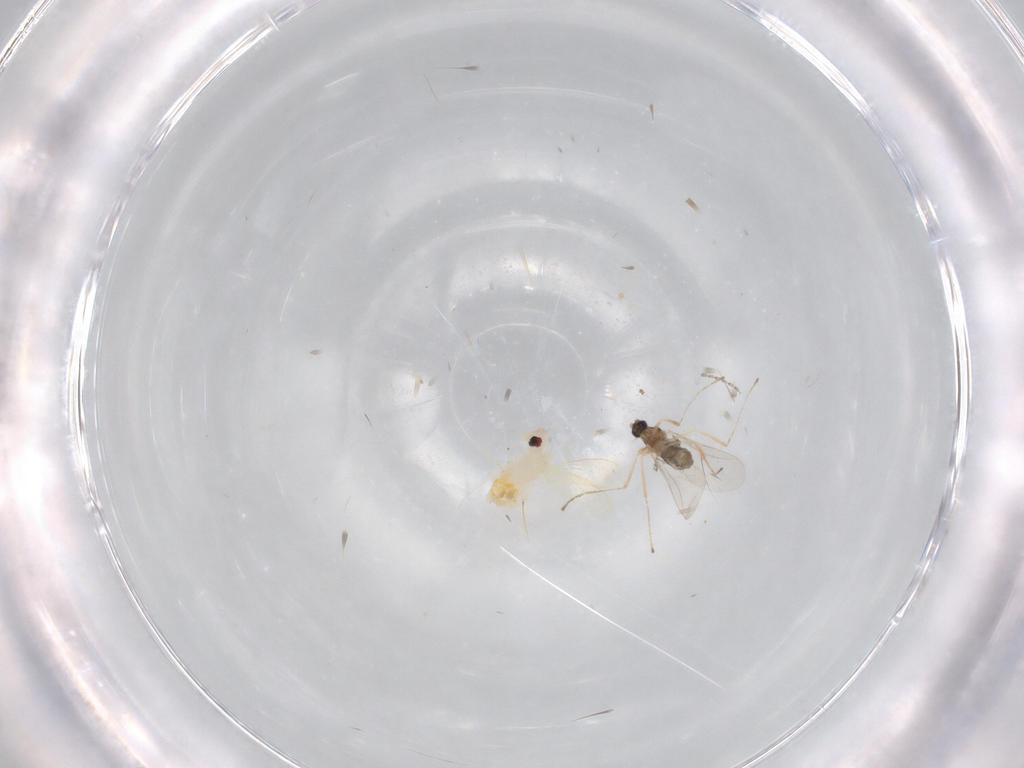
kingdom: Animalia
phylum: Arthropoda
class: Insecta
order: Diptera
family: Cecidomyiidae
